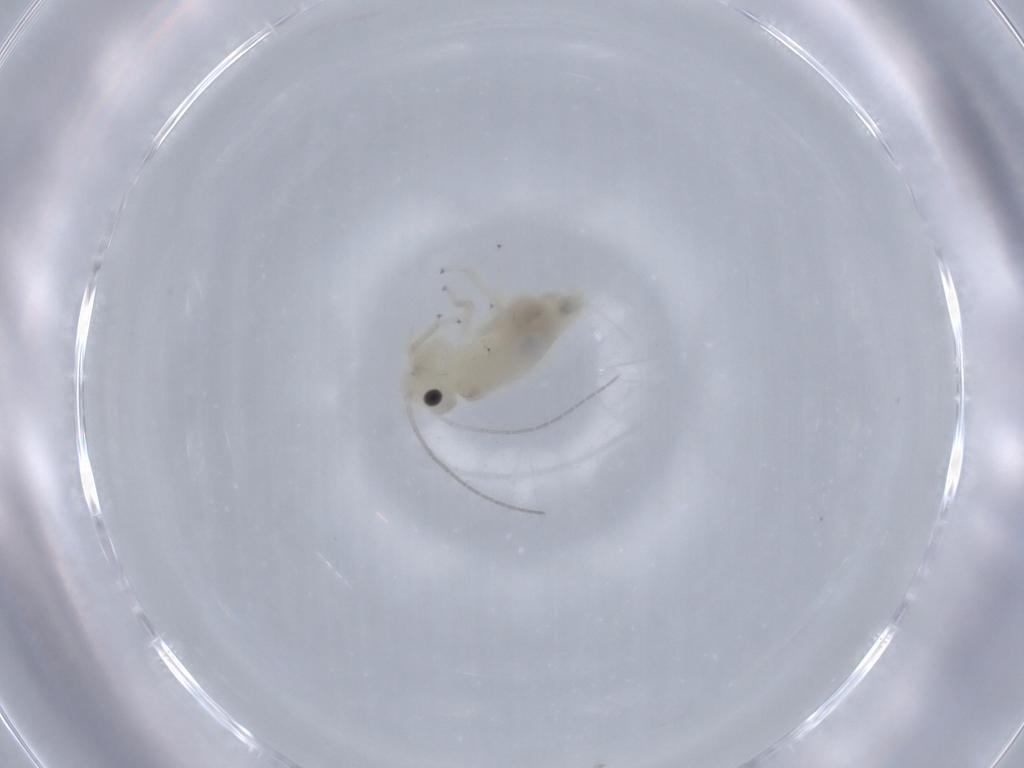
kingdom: Animalia
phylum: Arthropoda
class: Insecta
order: Psocodea
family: Caeciliusidae
